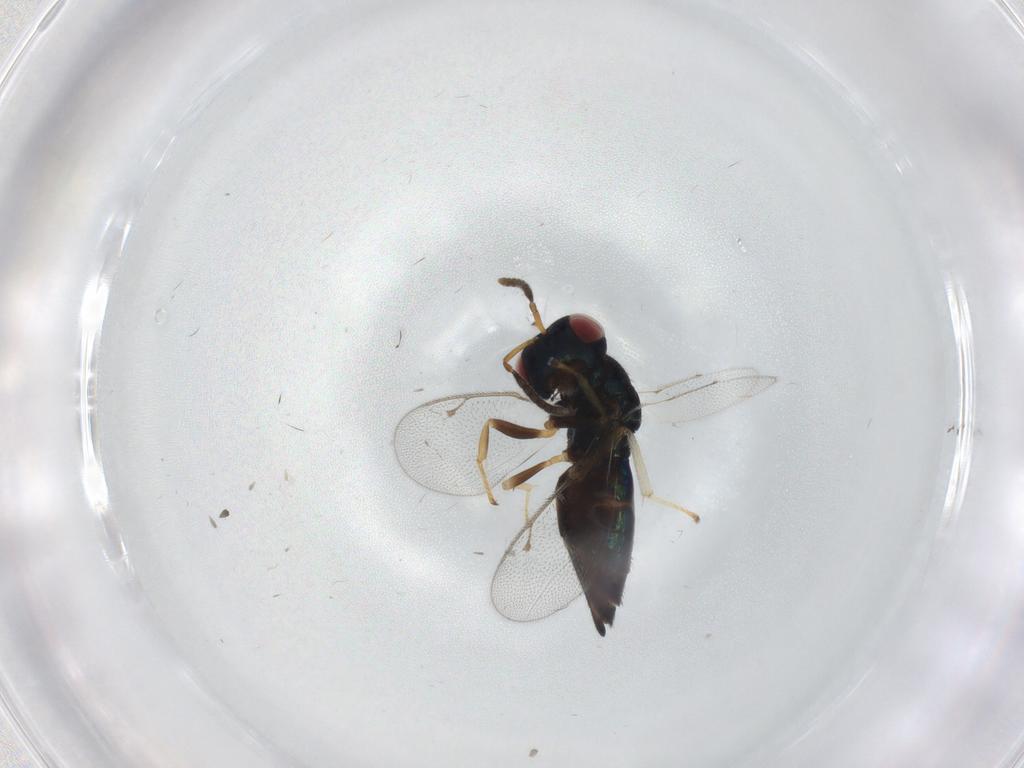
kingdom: Animalia
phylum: Arthropoda
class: Insecta
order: Hymenoptera
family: Pteromalidae
